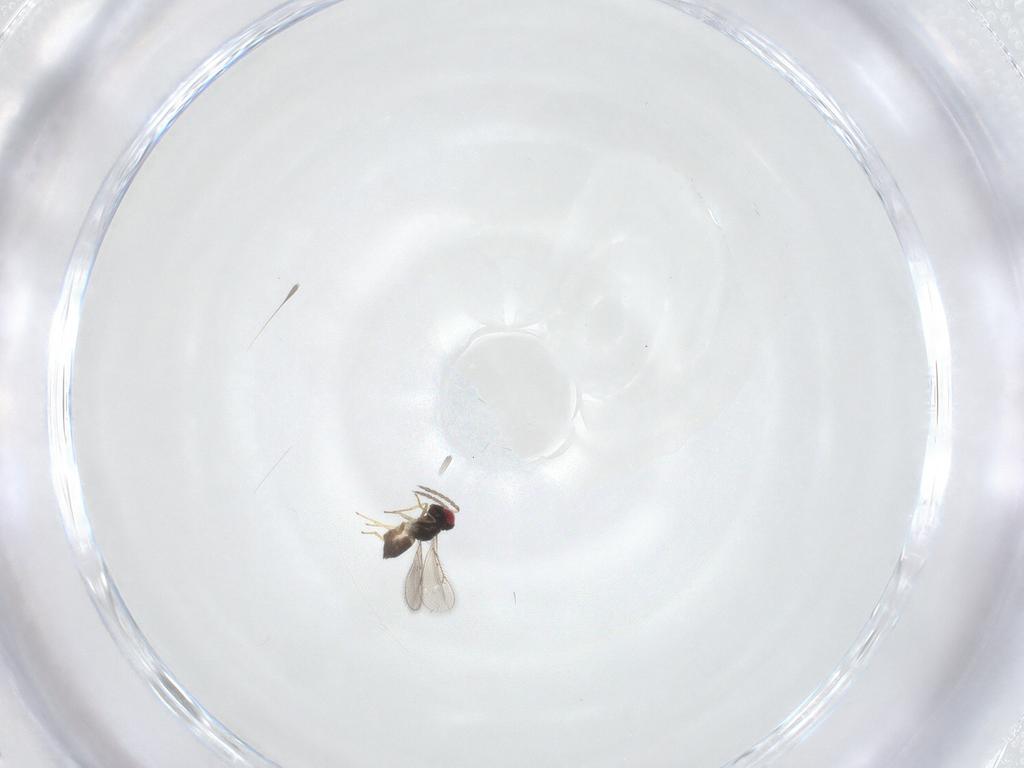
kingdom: Animalia
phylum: Arthropoda
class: Insecta
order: Hymenoptera
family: Eulophidae
